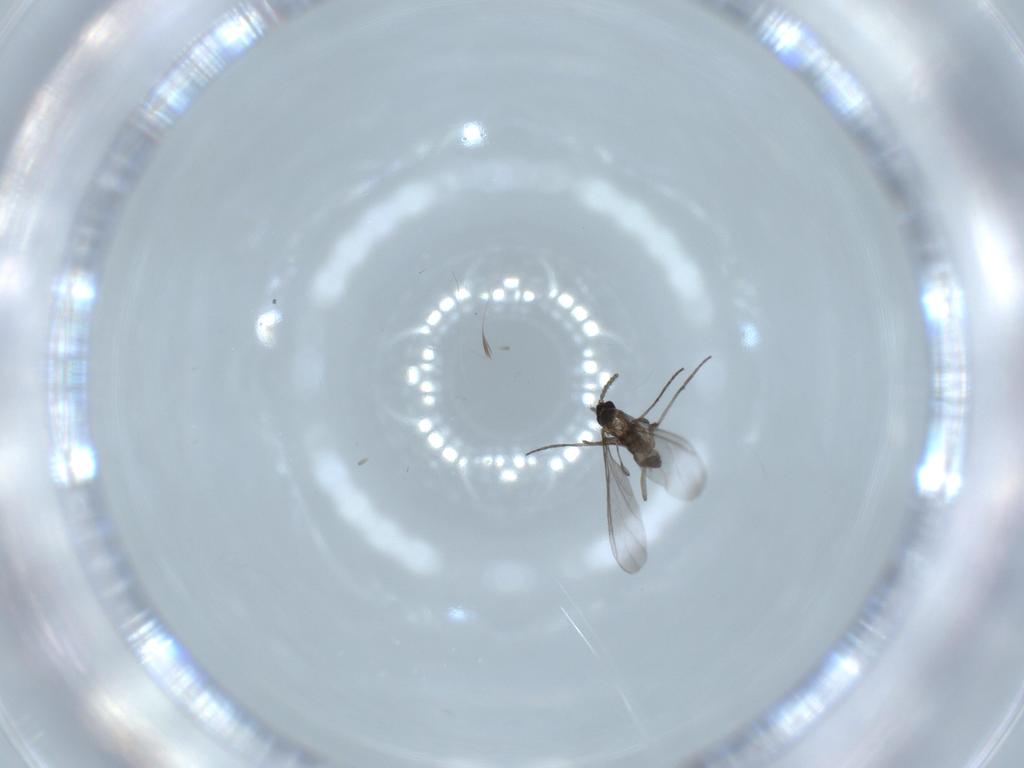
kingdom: Animalia
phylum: Arthropoda
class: Insecta
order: Diptera
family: Sciaridae
